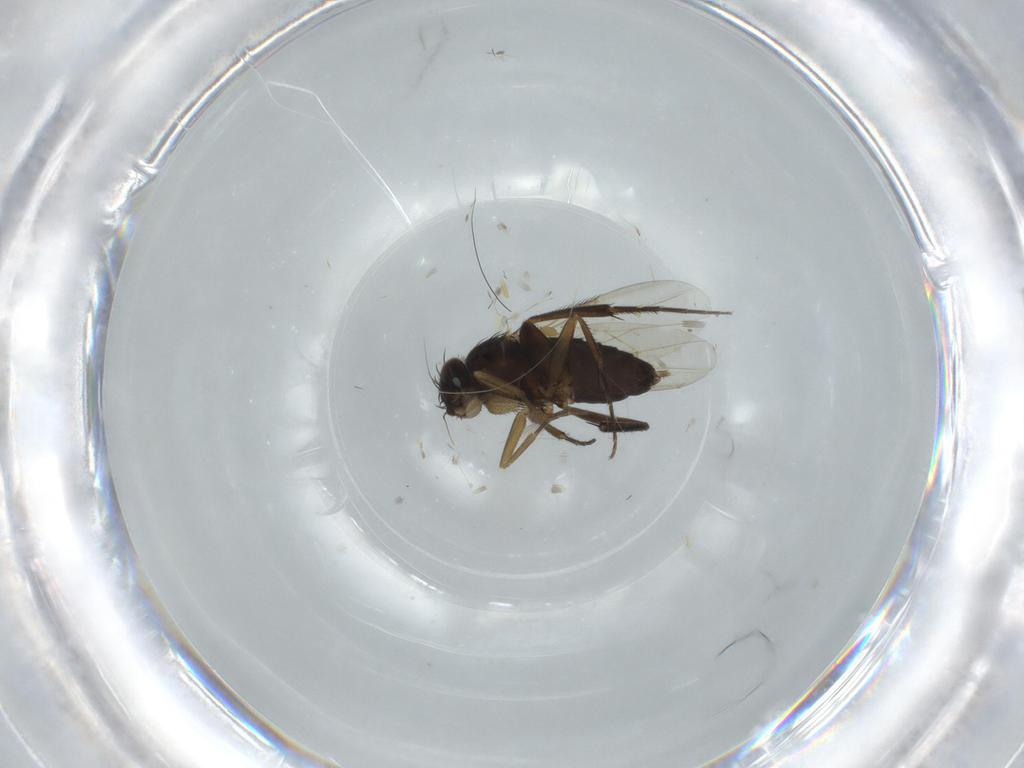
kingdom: Animalia
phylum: Arthropoda
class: Insecta
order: Diptera
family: Phoridae
